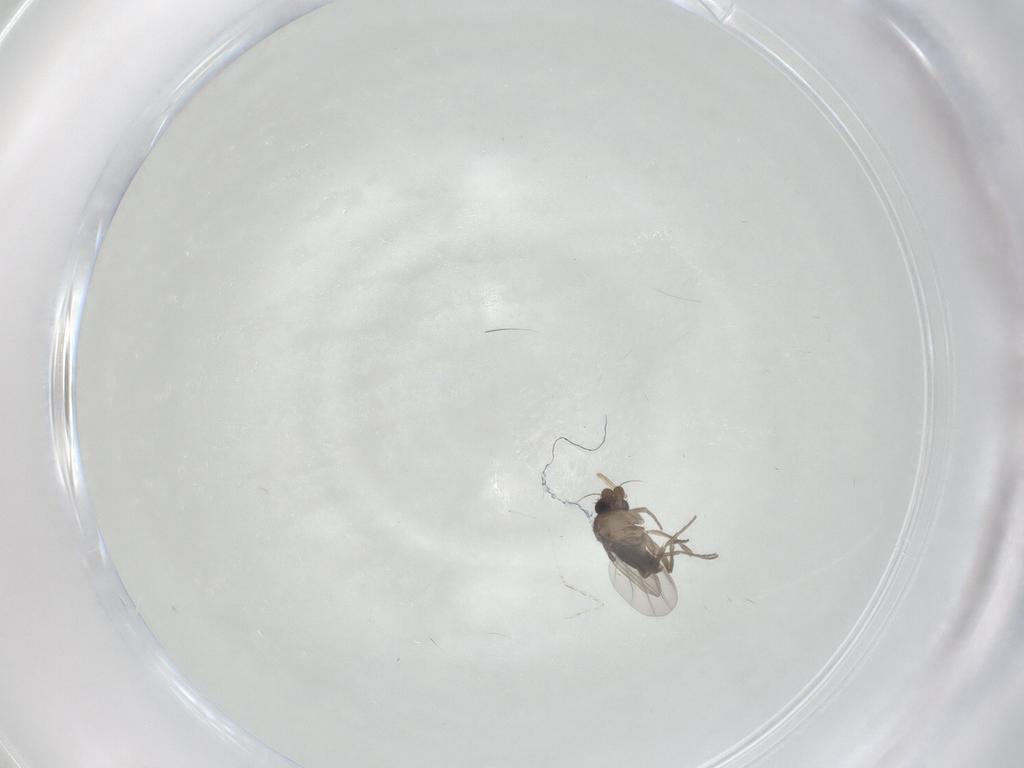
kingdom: Animalia
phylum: Arthropoda
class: Insecta
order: Diptera
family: Phoridae
